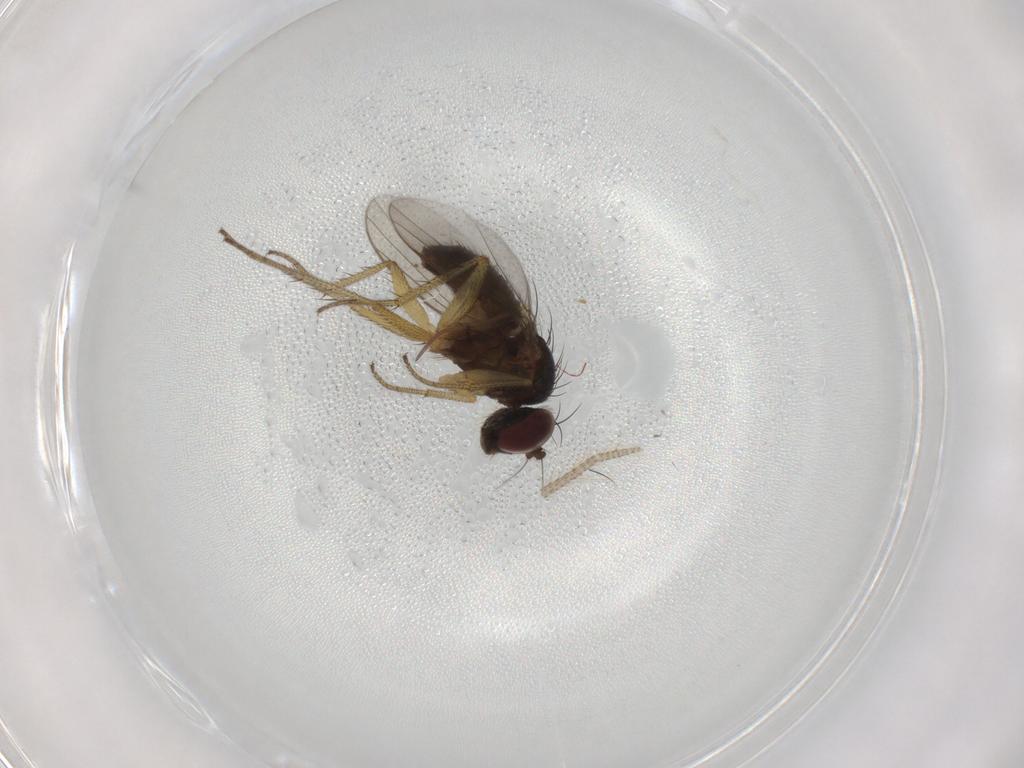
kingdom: Animalia
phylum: Arthropoda
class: Insecta
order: Diptera
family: Dolichopodidae
